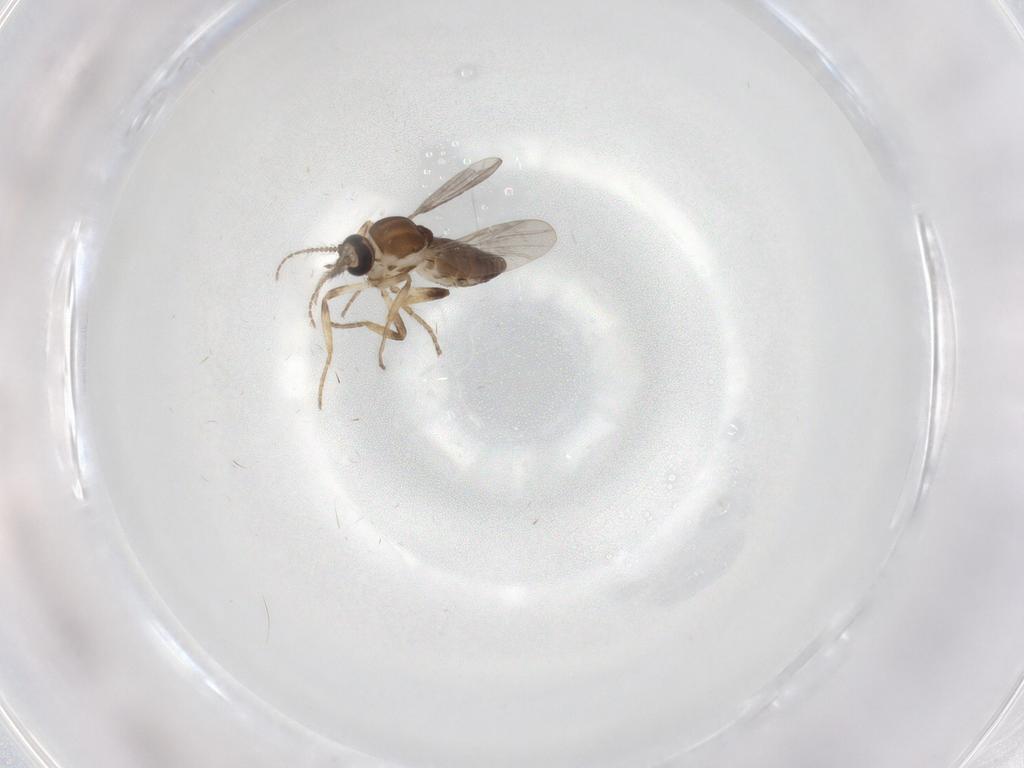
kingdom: Animalia
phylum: Arthropoda
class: Insecta
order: Diptera
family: Ceratopogonidae
